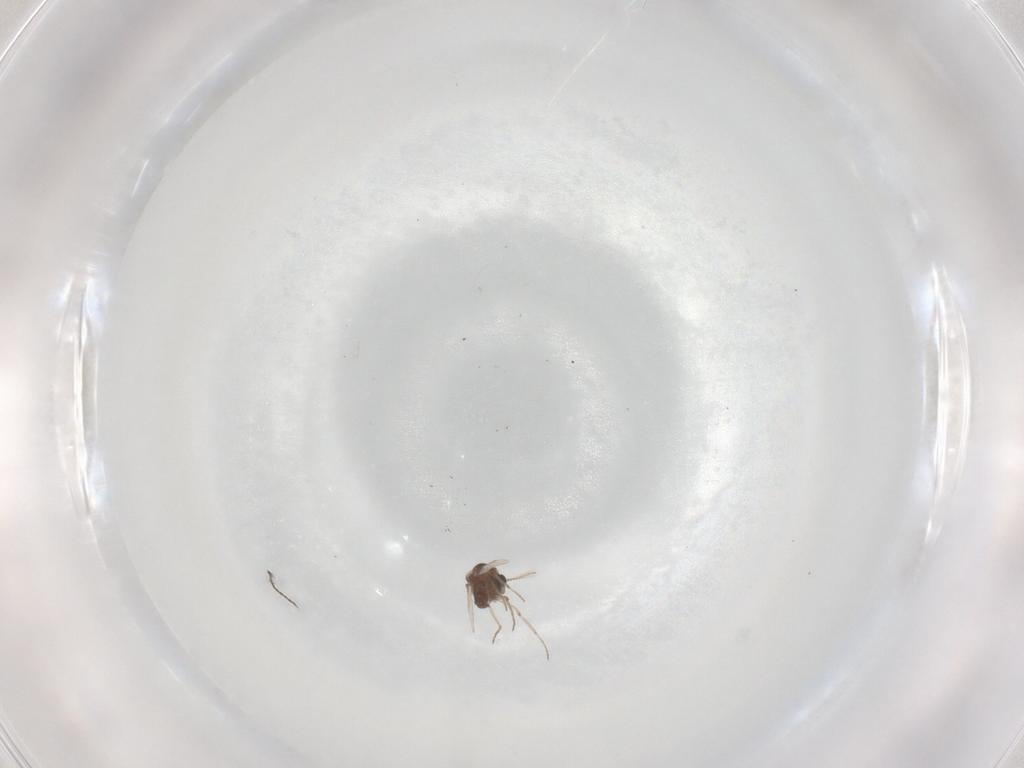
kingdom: Animalia
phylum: Arthropoda
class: Insecta
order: Diptera
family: Ceratopogonidae
